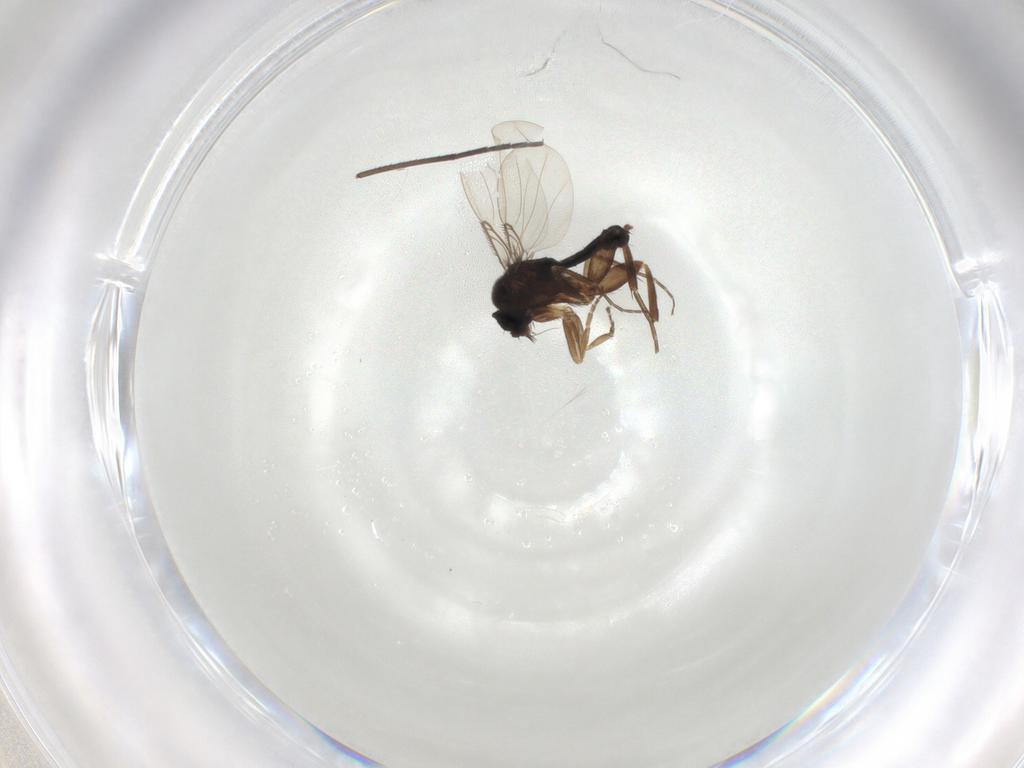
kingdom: Animalia
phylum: Arthropoda
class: Insecta
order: Diptera
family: Phoridae
